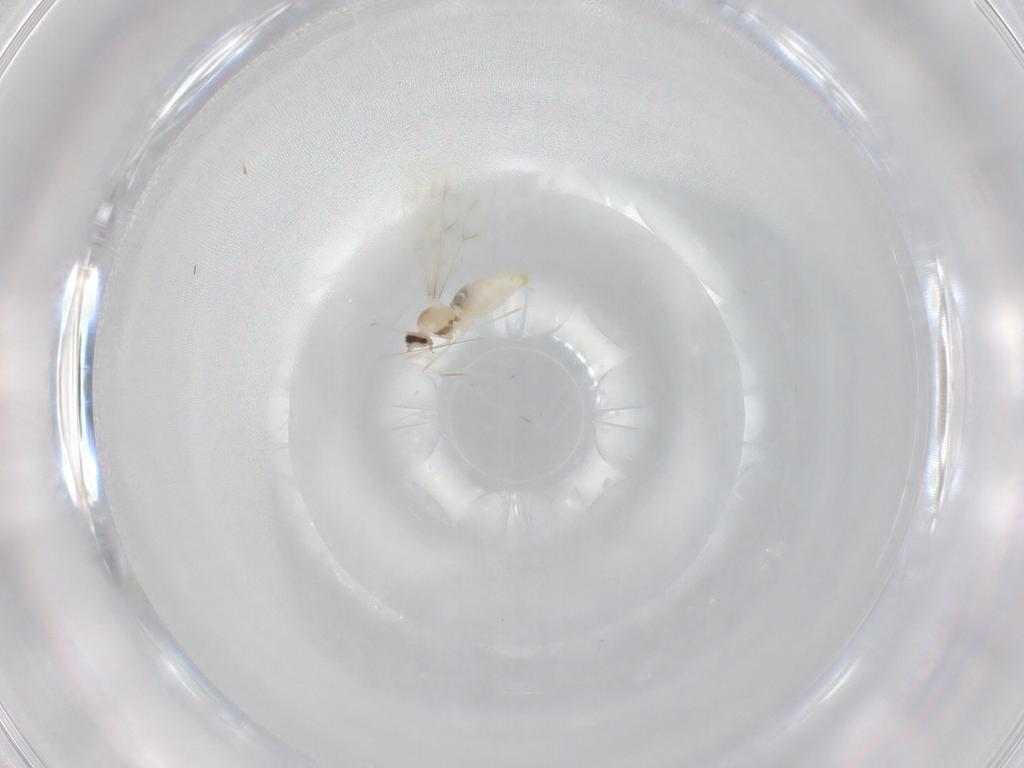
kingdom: Animalia
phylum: Arthropoda
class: Insecta
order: Diptera
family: Cecidomyiidae
